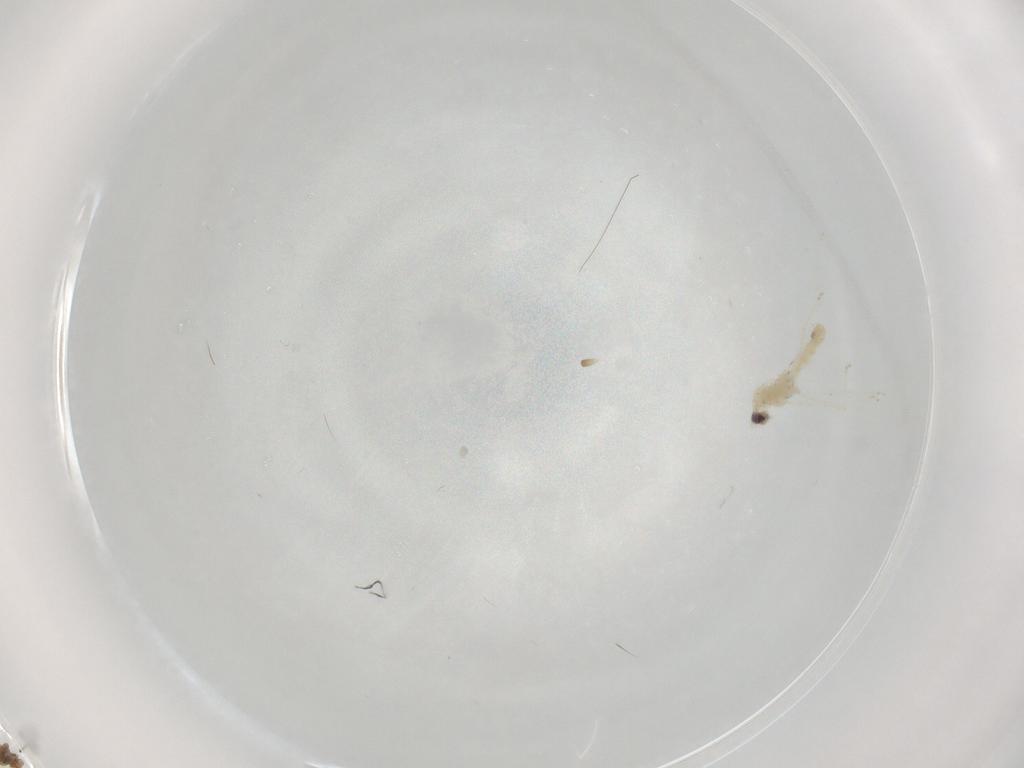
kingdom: Animalia
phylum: Arthropoda
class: Insecta
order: Diptera
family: Cecidomyiidae
